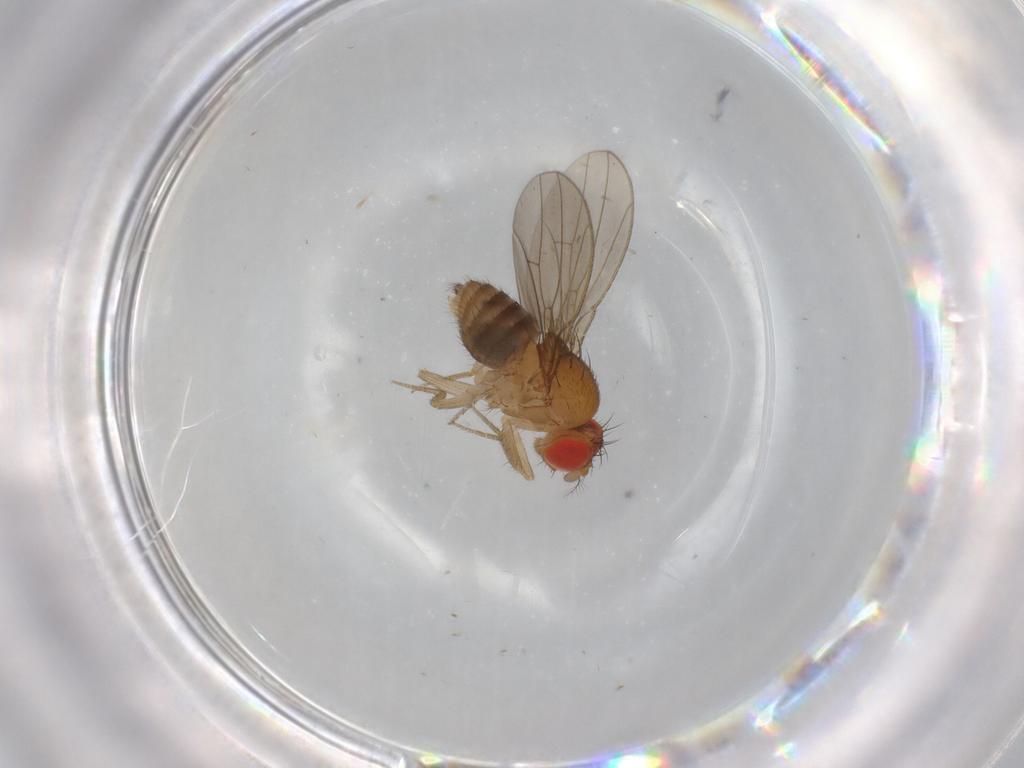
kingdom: Animalia
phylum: Arthropoda
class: Insecta
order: Diptera
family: Drosophilidae
